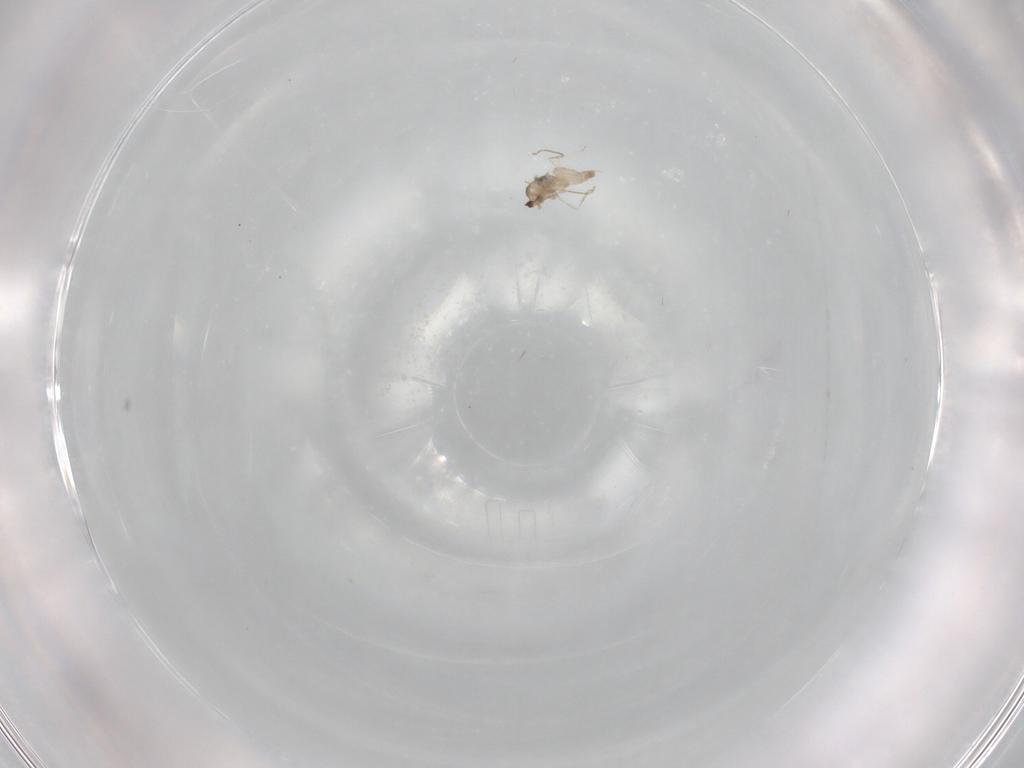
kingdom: Animalia
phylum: Arthropoda
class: Insecta
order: Diptera
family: Cecidomyiidae
